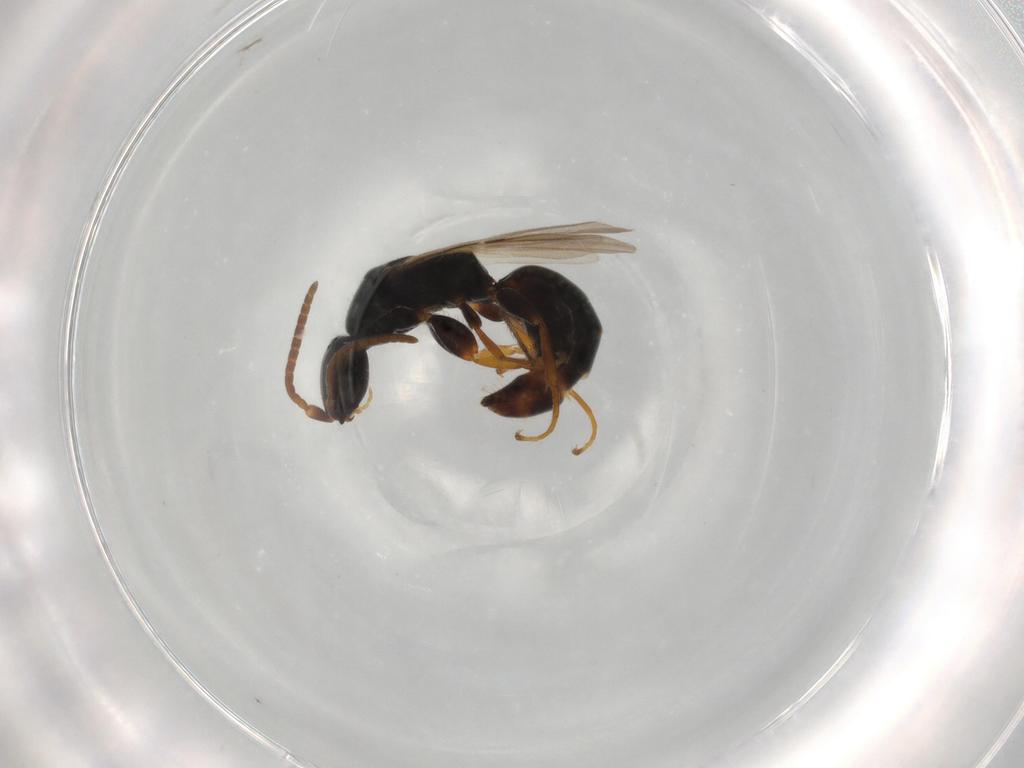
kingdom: Animalia
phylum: Arthropoda
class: Insecta
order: Hymenoptera
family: Bethylidae
